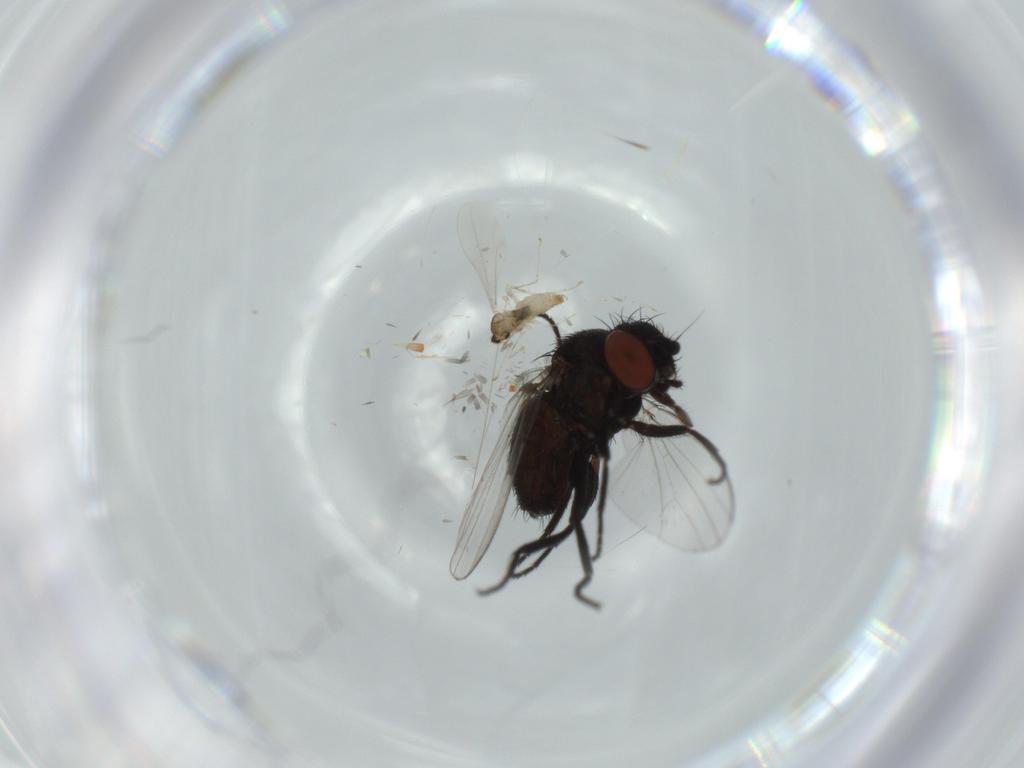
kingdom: Animalia
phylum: Arthropoda
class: Insecta
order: Diptera
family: Milichiidae
